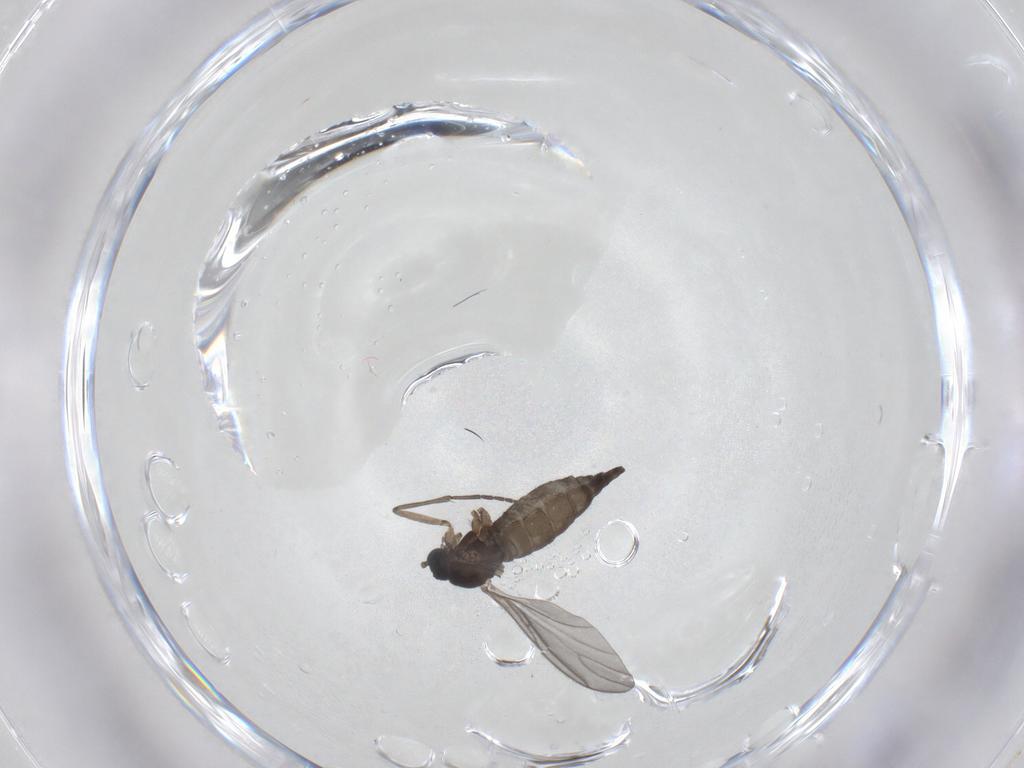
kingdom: Animalia
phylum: Arthropoda
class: Insecta
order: Diptera
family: Sciaridae
